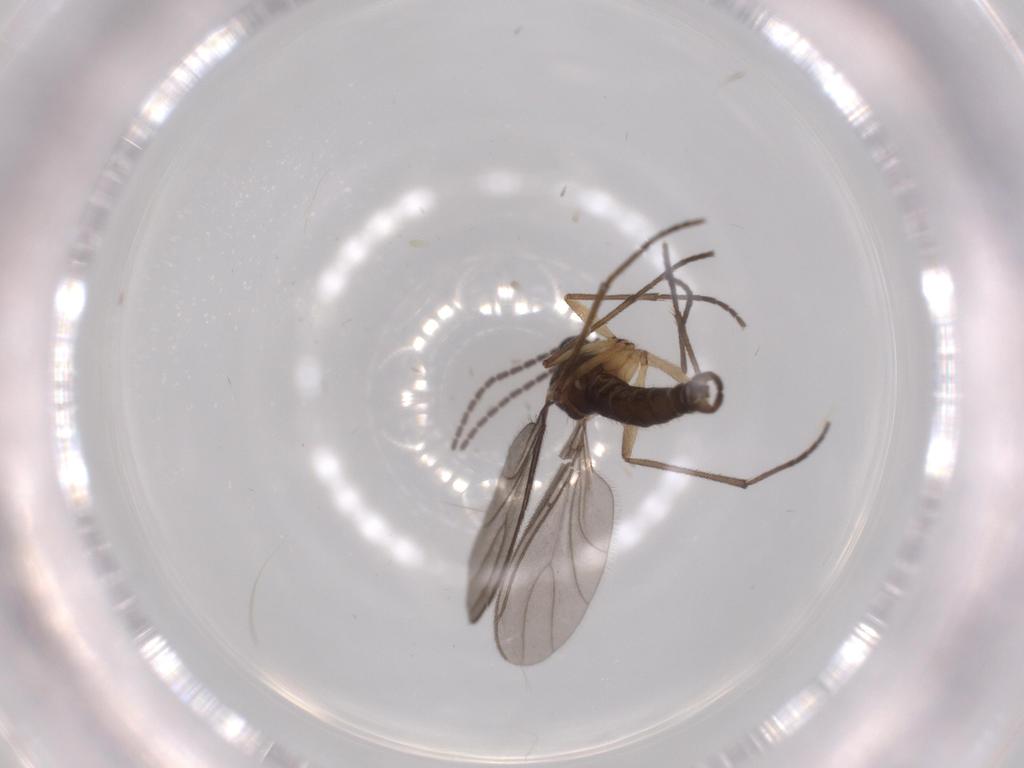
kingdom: Animalia
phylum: Arthropoda
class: Insecta
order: Diptera
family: Sciaridae
